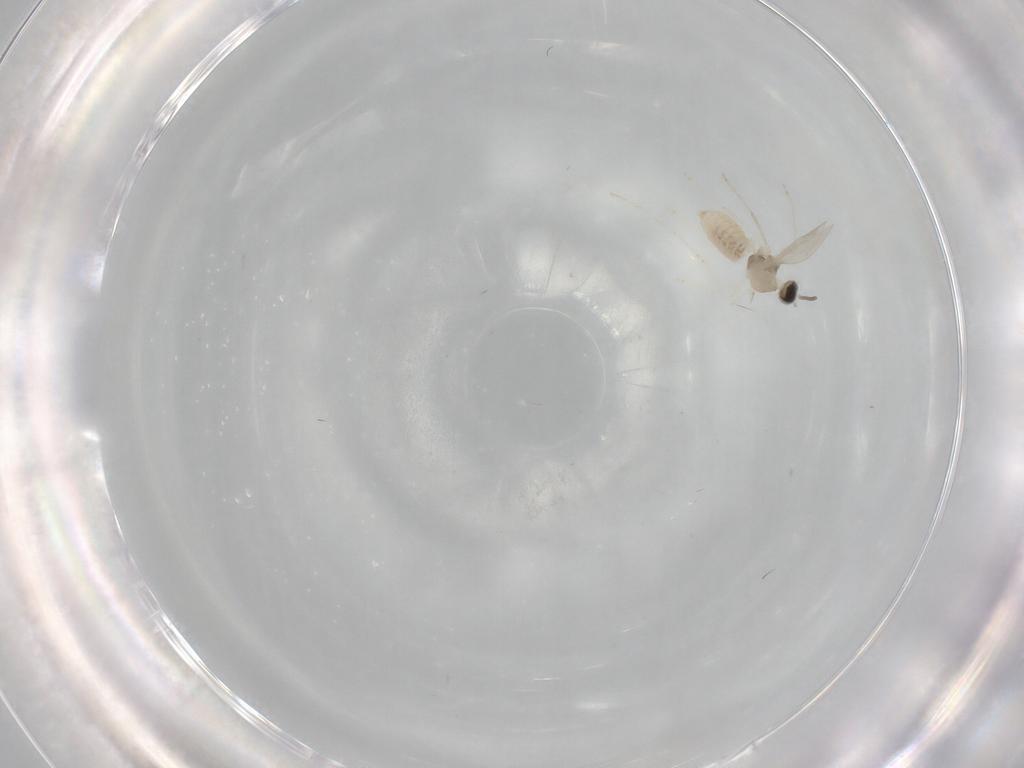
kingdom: Animalia
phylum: Arthropoda
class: Insecta
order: Diptera
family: Cecidomyiidae
